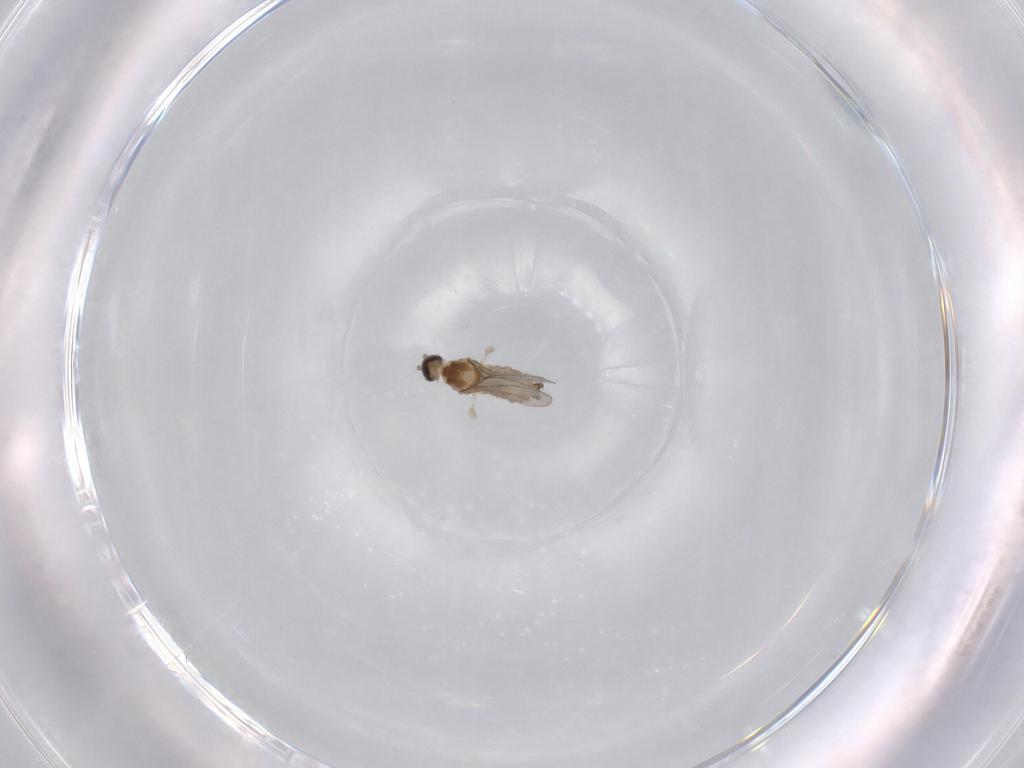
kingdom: Animalia
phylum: Arthropoda
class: Insecta
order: Diptera
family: Cecidomyiidae
